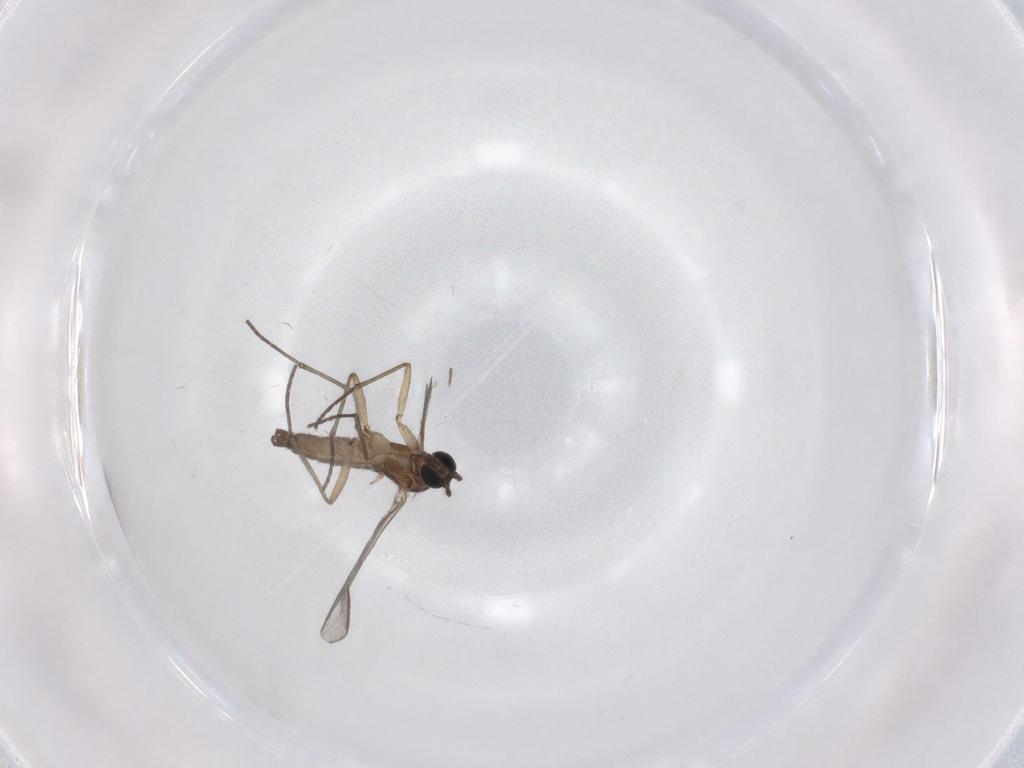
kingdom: Animalia
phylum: Arthropoda
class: Insecta
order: Diptera
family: Sciaridae
